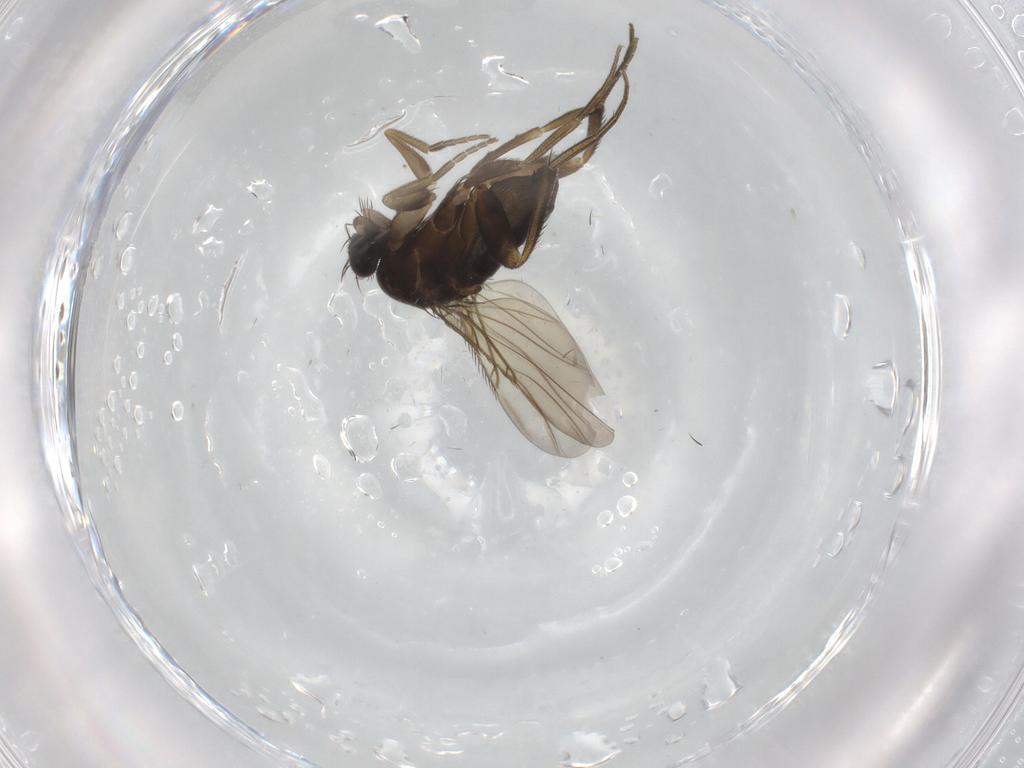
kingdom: Animalia
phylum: Arthropoda
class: Insecta
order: Diptera
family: Phoridae
